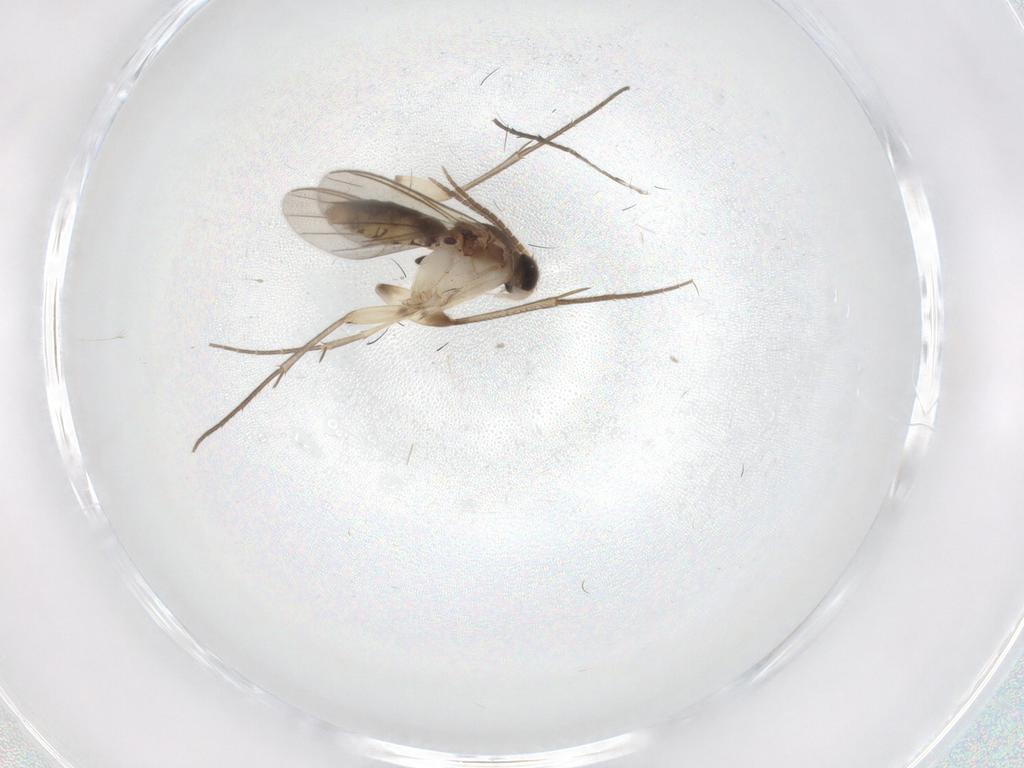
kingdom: Animalia
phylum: Arthropoda
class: Insecta
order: Diptera
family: Mycetophilidae
